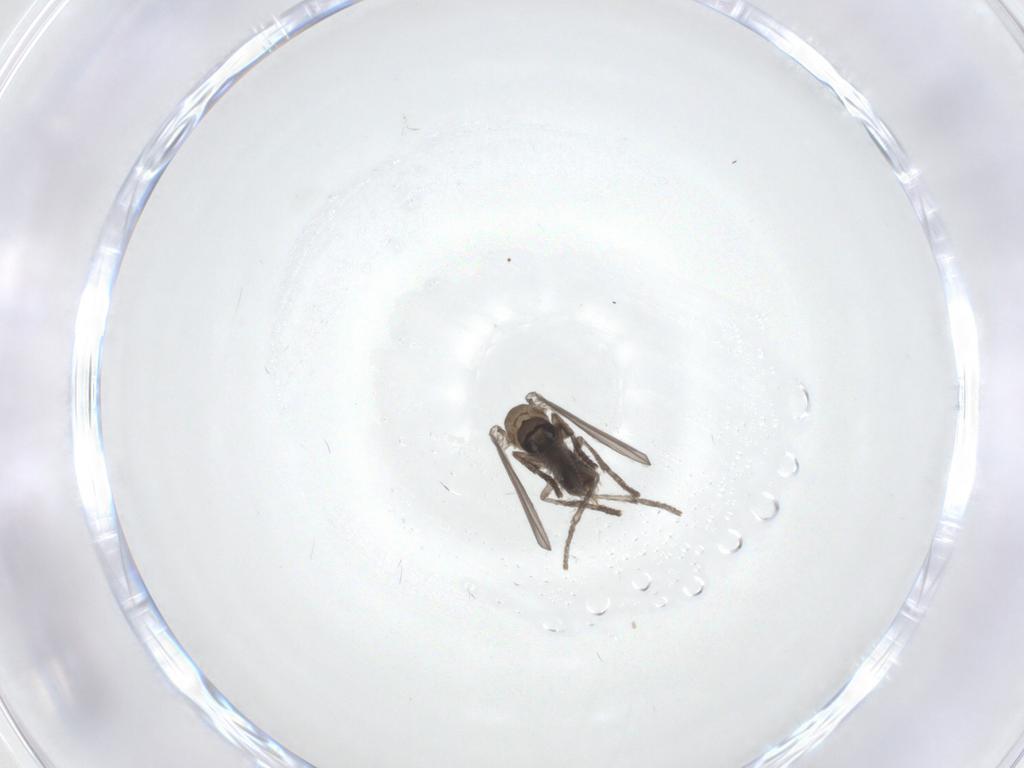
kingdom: Animalia
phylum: Arthropoda
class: Insecta
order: Diptera
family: Psychodidae
